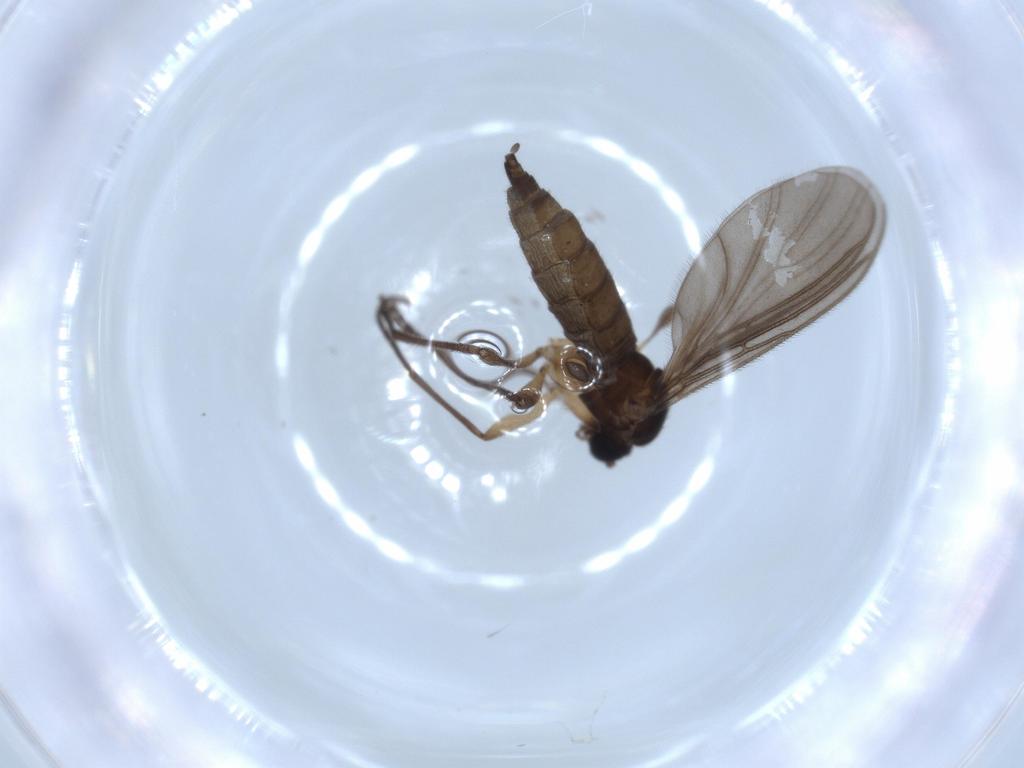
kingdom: Animalia
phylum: Arthropoda
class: Insecta
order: Diptera
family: Sciaridae
